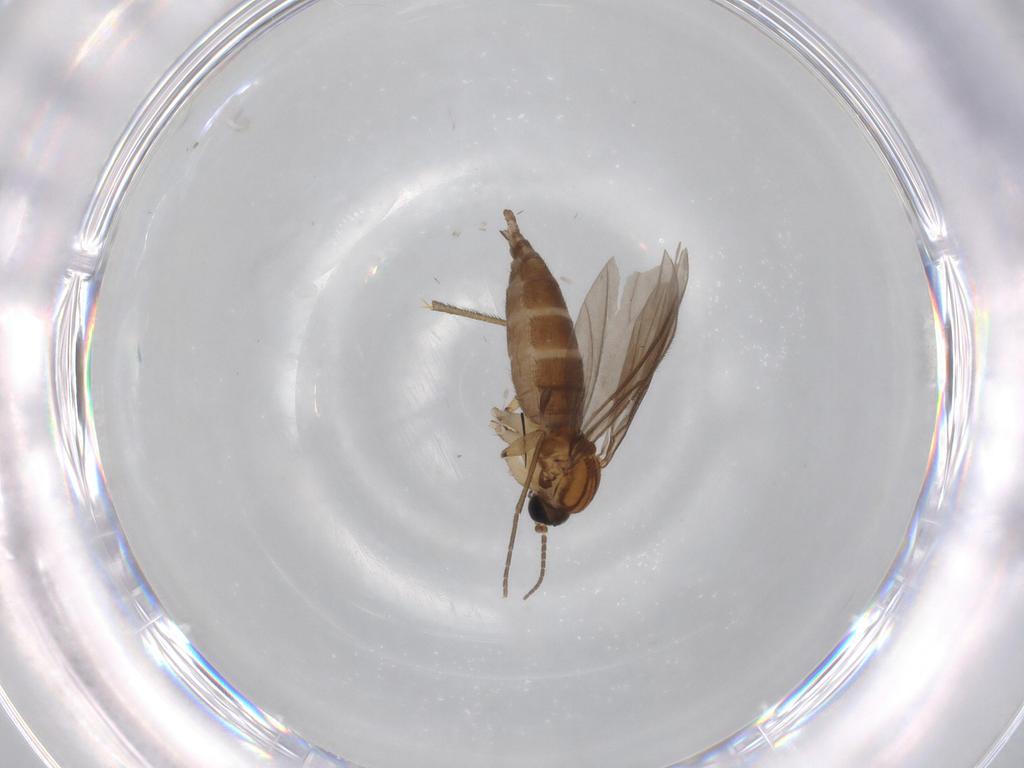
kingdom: Animalia
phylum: Arthropoda
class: Insecta
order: Diptera
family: Sciaridae
